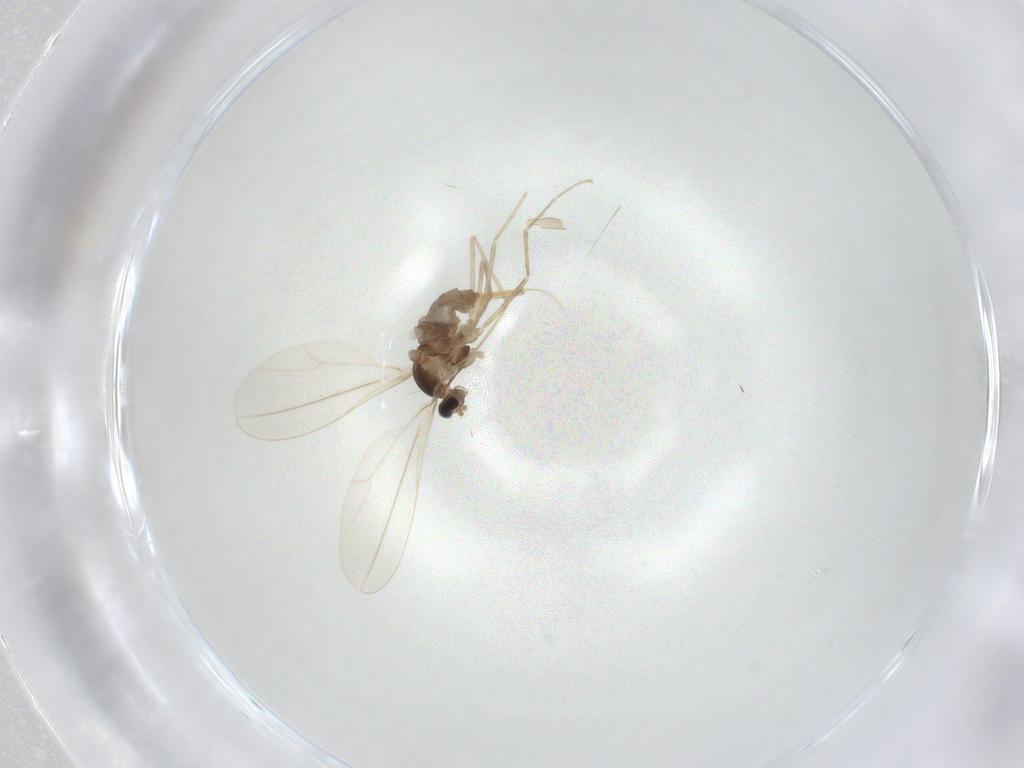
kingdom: Animalia
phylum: Arthropoda
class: Insecta
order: Diptera
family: Cecidomyiidae
